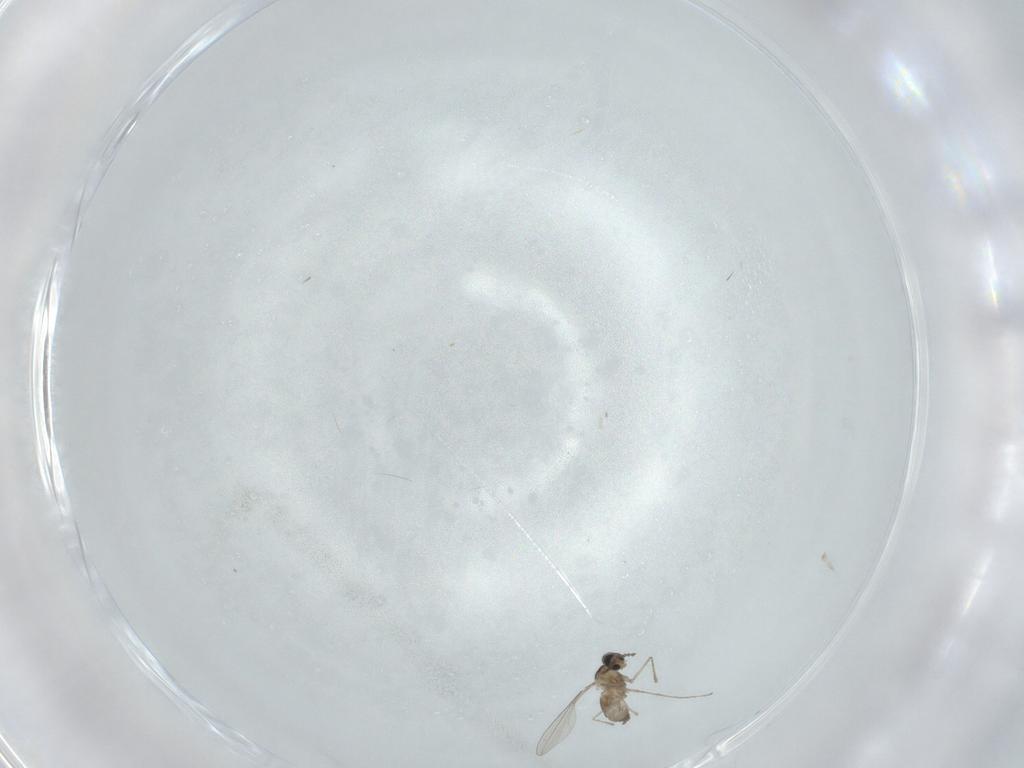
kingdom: Animalia
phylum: Arthropoda
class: Insecta
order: Diptera
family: Cecidomyiidae
